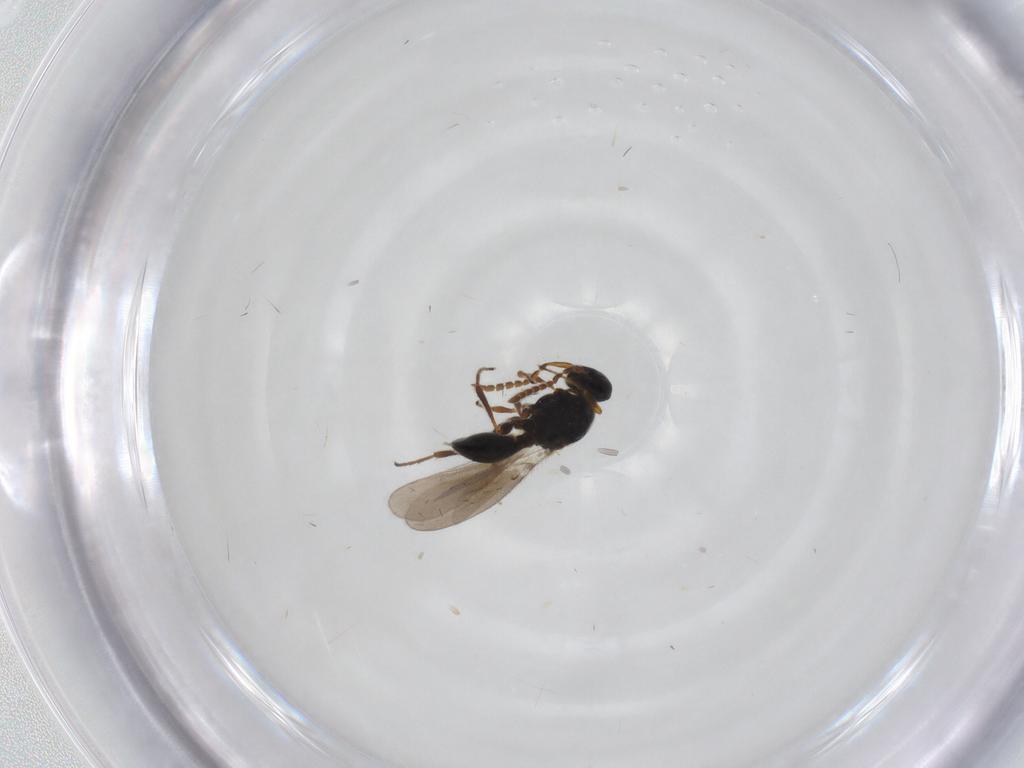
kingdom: Animalia
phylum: Arthropoda
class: Insecta
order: Hymenoptera
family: Platygastridae
